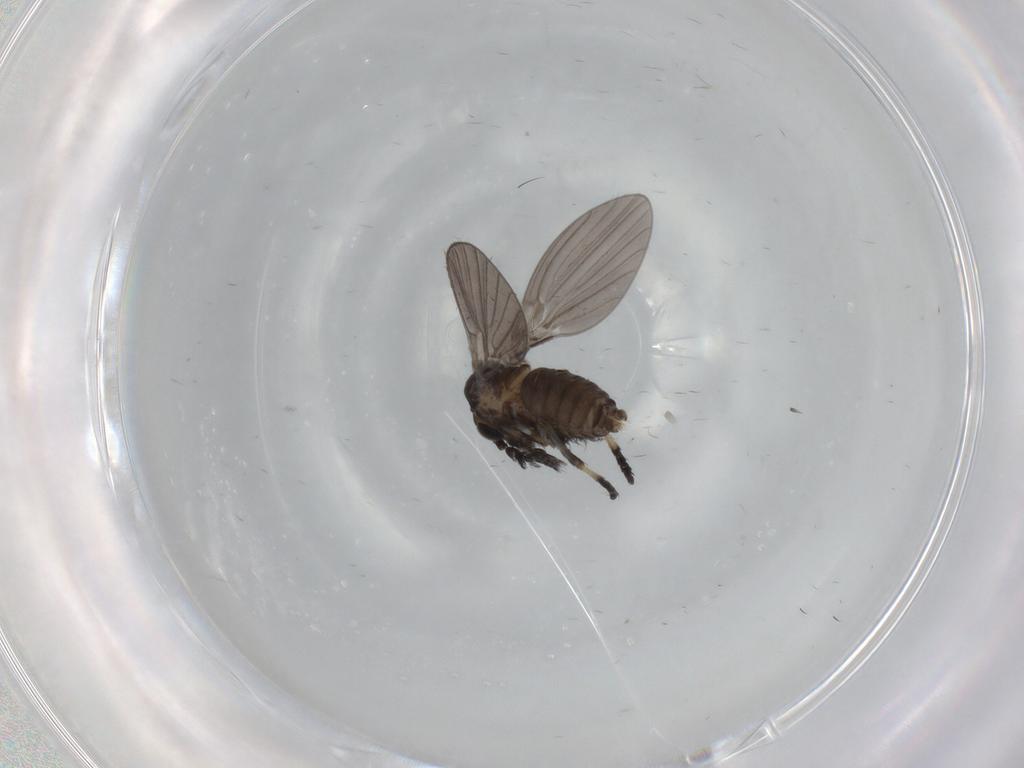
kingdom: Animalia
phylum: Arthropoda
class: Insecta
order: Diptera
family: Psychodidae
